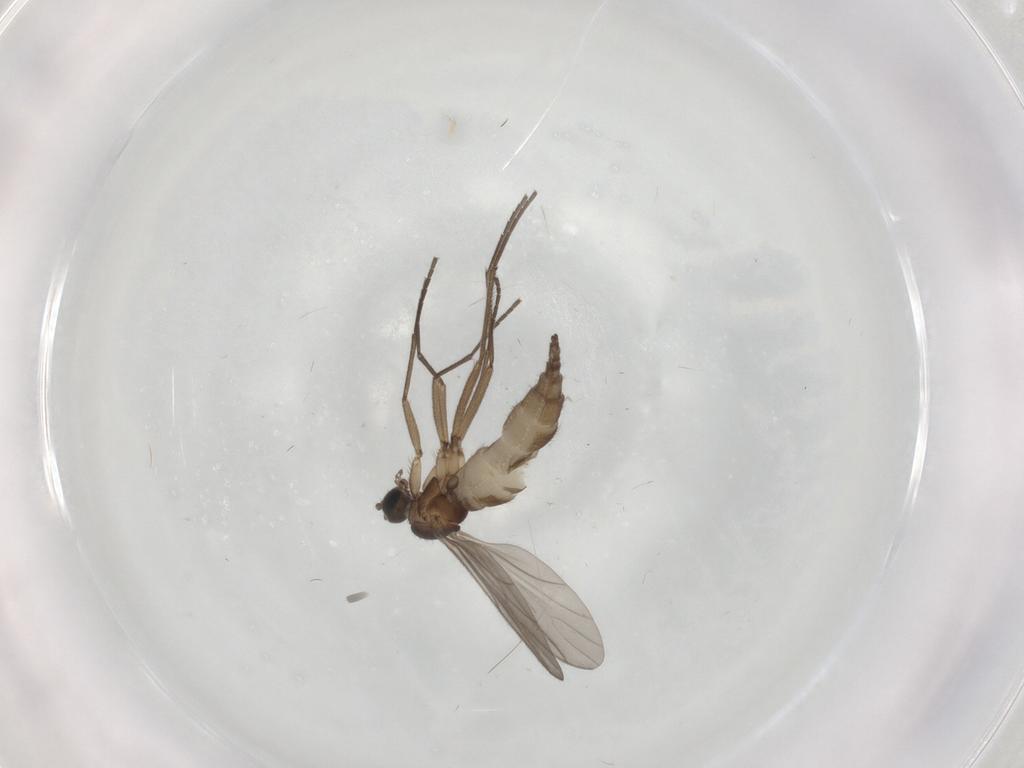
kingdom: Animalia
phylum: Arthropoda
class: Insecta
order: Diptera
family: Sciaridae
